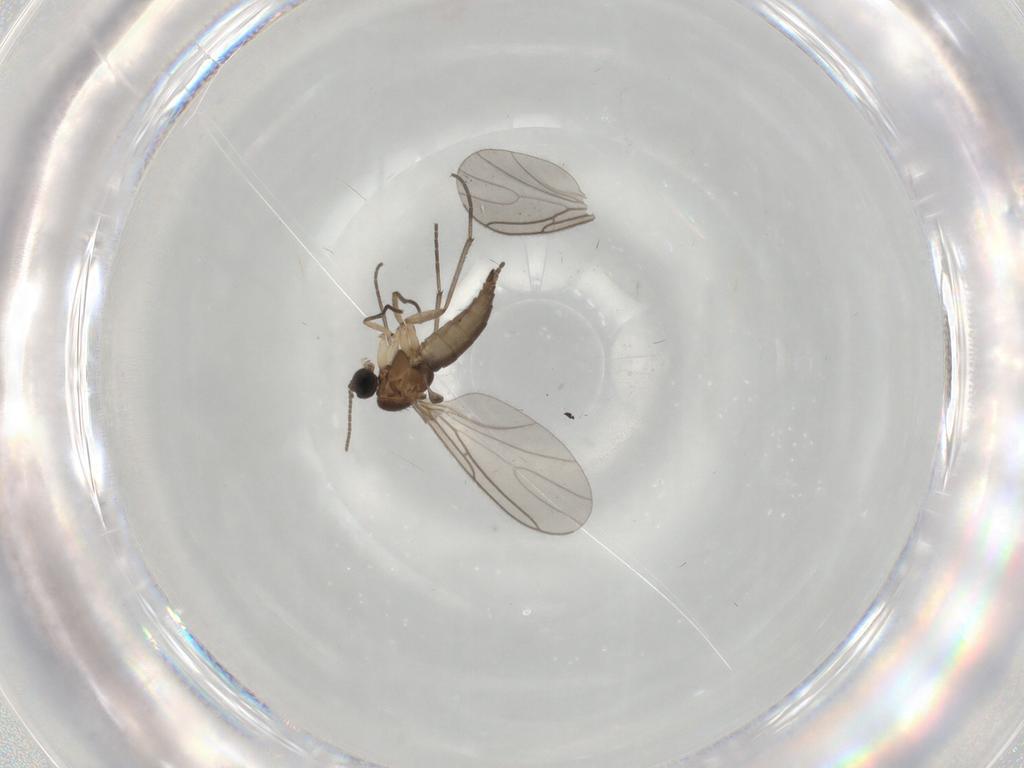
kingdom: Animalia
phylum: Arthropoda
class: Insecta
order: Diptera
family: Sciaridae
